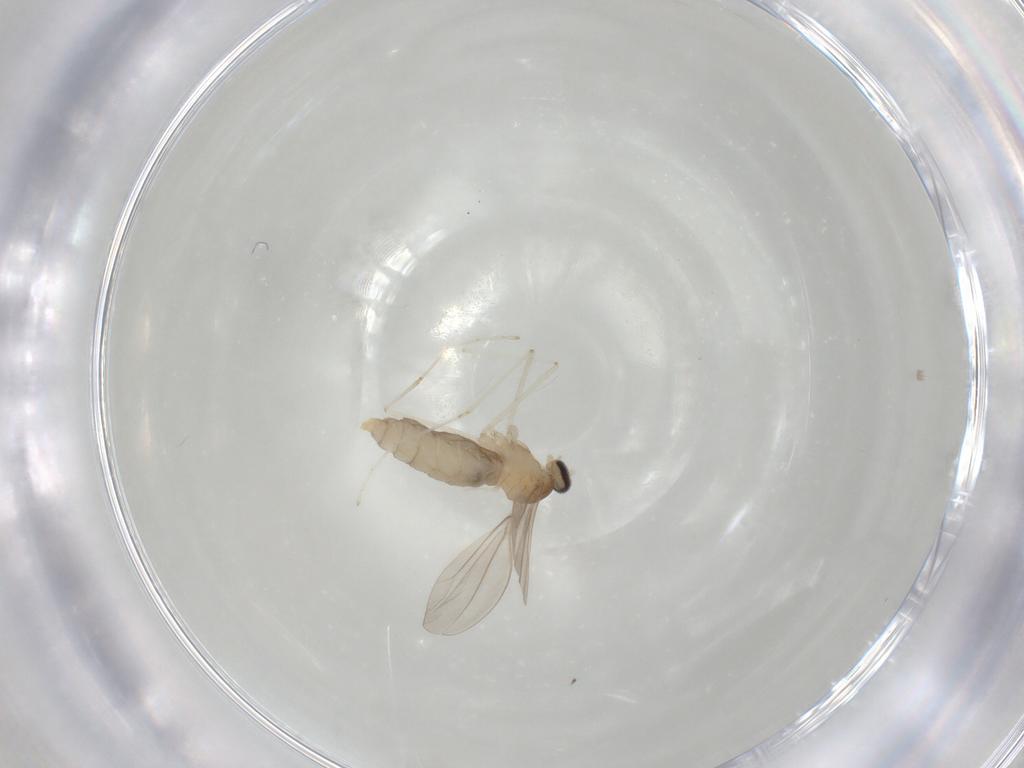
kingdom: Animalia
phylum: Arthropoda
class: Insecta
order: Diptera
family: Cecidomyiidae
